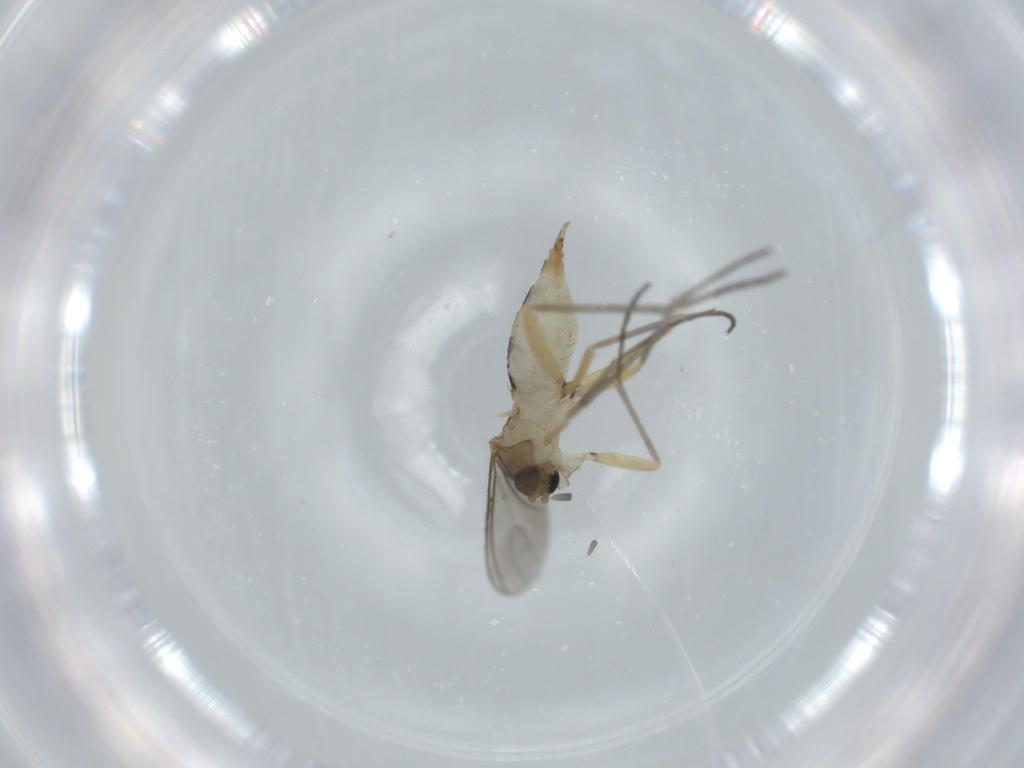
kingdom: Animalia
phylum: Arthropoda
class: Insecta
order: Diptera
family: Sciaridae
